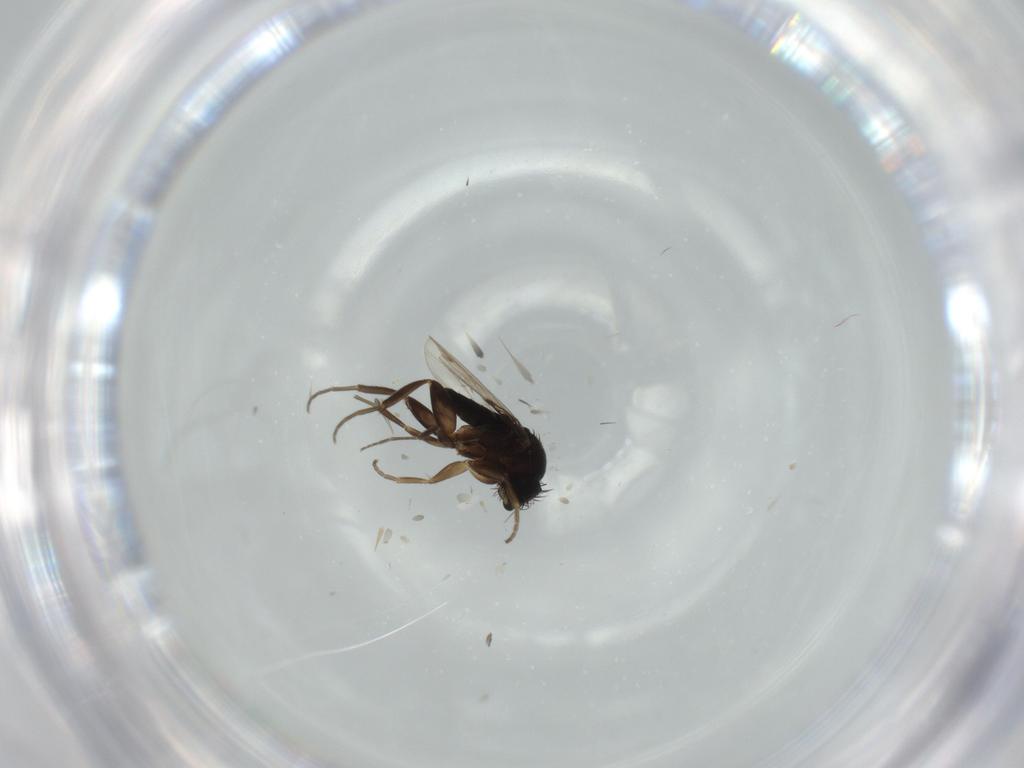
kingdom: Animalia
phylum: Arthropoda
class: Insecta
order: Diptera
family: Phoridae
